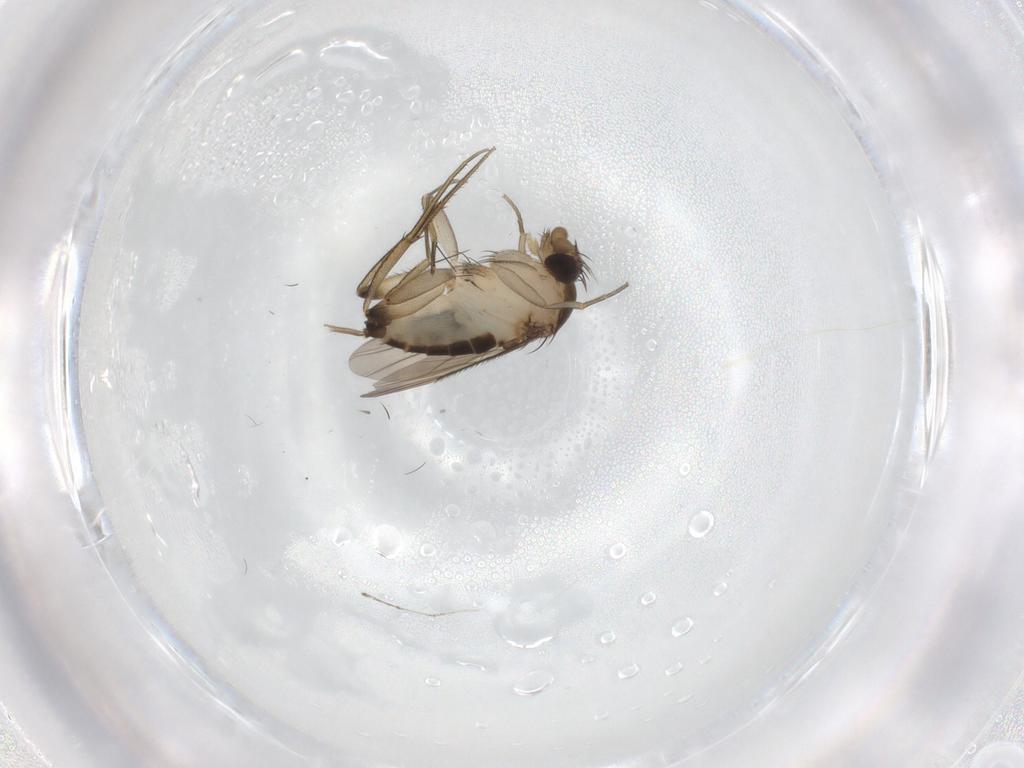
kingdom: Animalia
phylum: Arthropoda
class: Insecta
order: Diptera
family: Phoridae
